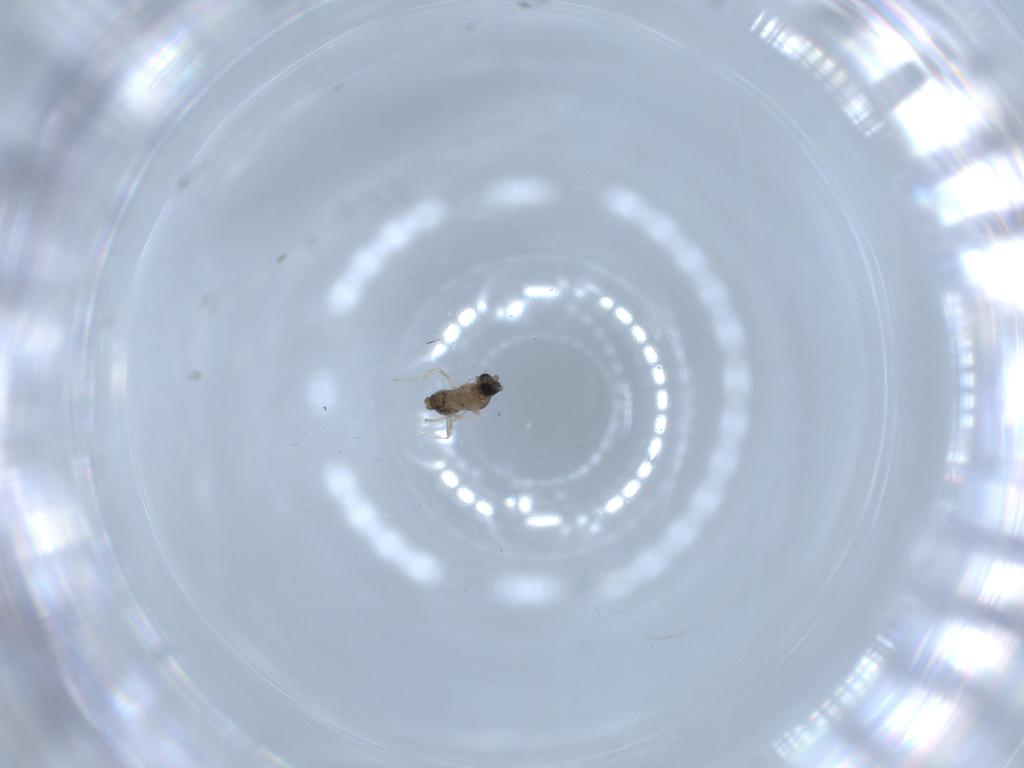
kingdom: Animalia
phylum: Arthropoda
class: Insecta
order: Diptera
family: Cecidomyiidae
